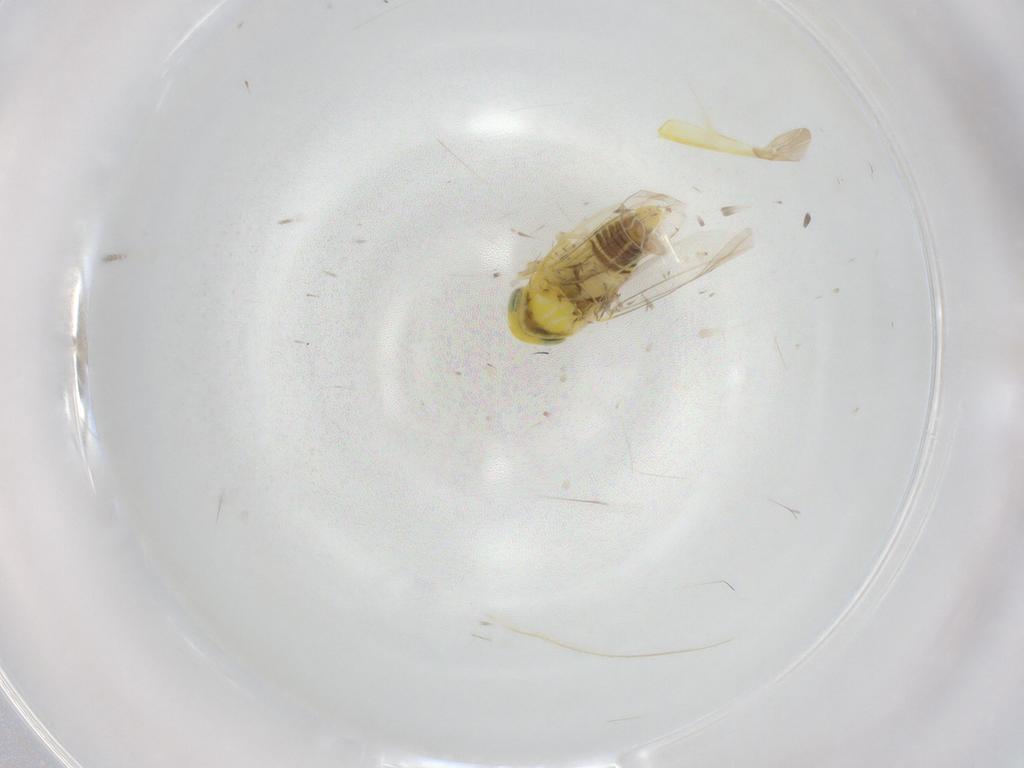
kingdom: Animalia
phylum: Arthropoda
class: Insecta
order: Hemiptera
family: Cicadellidae
